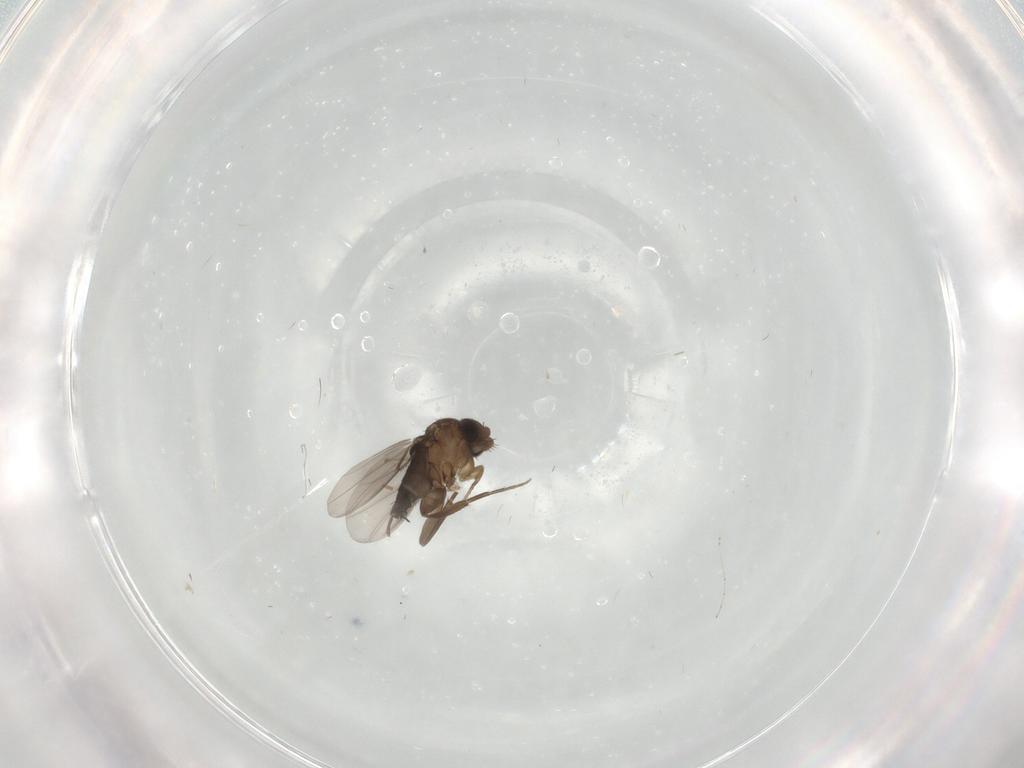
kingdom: Animalia
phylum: Arthropoda
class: Insecta
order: Diptera
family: Phoridae
